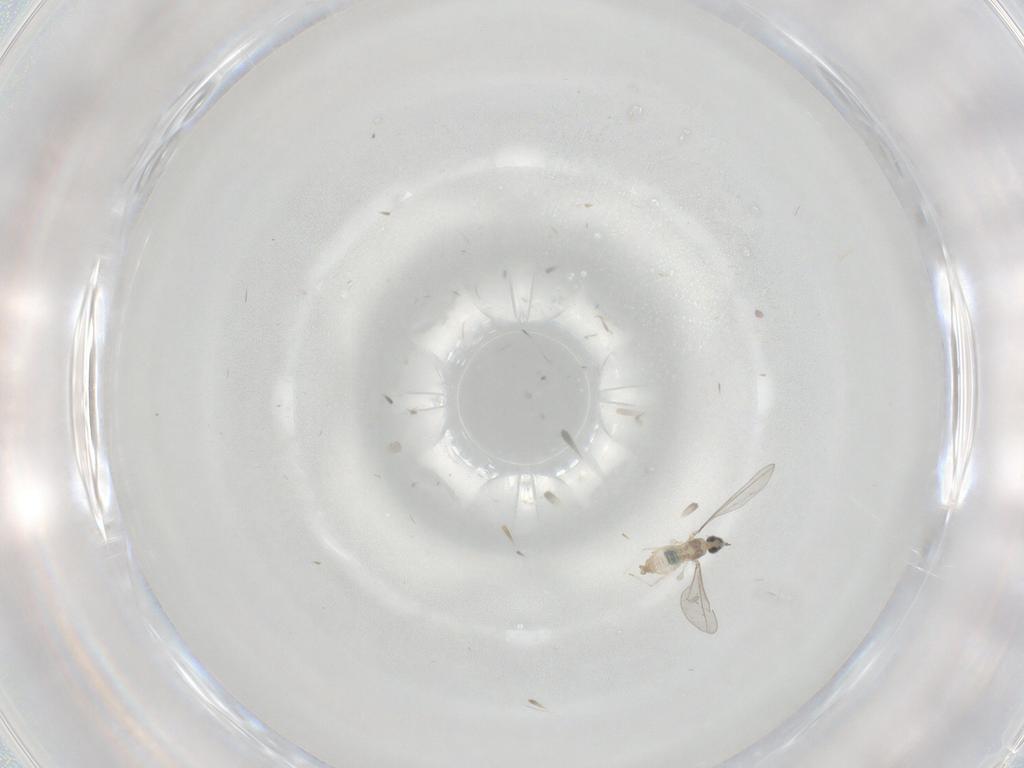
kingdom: Animalia
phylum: Arthropoda
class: Insecta
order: Diptera
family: Cecidomyiidae
